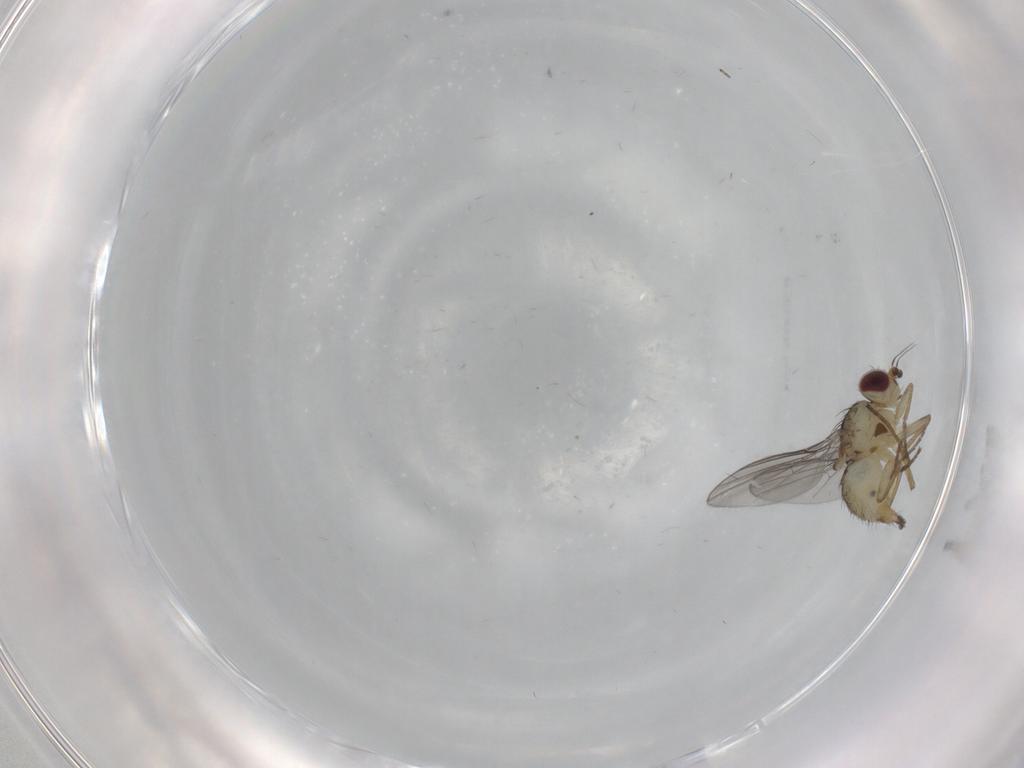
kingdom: Animalia
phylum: Arthropoda
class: Insecta
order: Diptera
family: Agromyzidae
